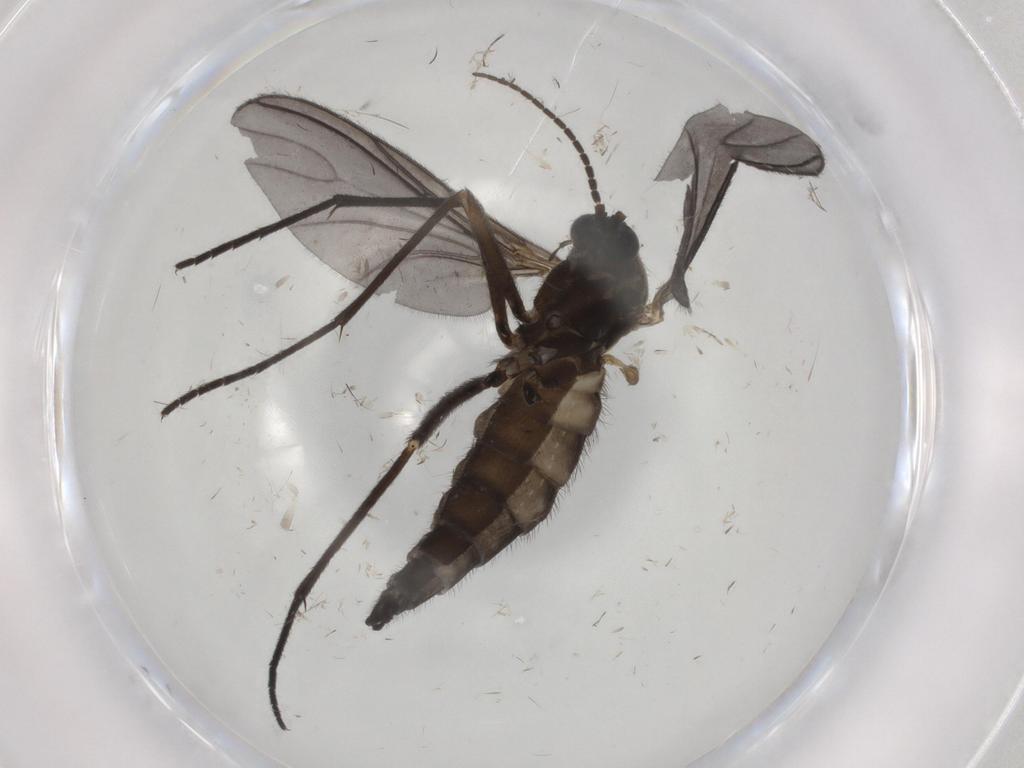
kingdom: Animalia
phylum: Arthropoda
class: Insecta
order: Diptera
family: Sciaridae
